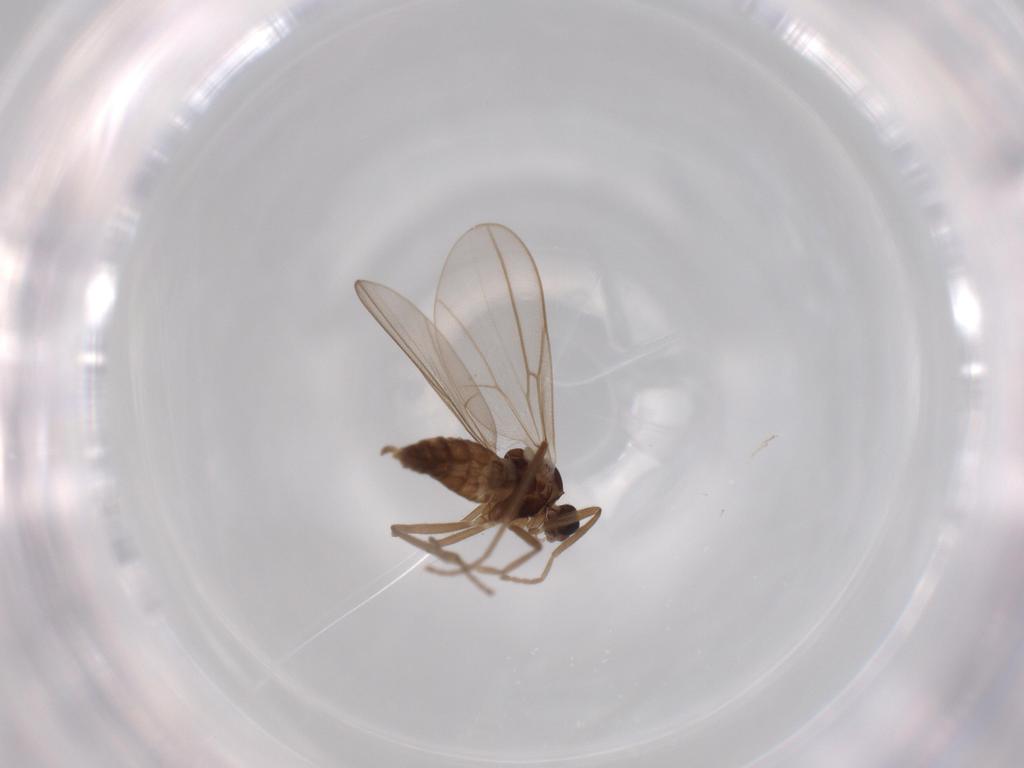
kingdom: Animalia
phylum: Arthropoda
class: Insecta
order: Diptera
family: Cecidomyiidae
